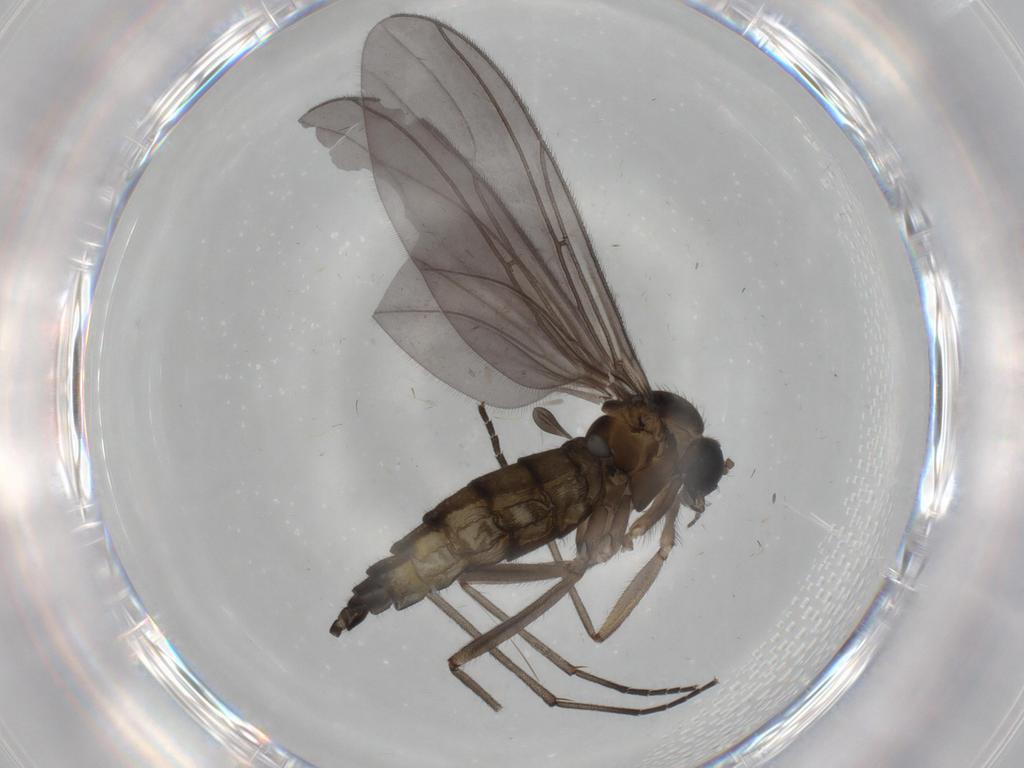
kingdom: Animalia
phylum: Arthropoda
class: Insecta
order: Diptera
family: Sciaridae
